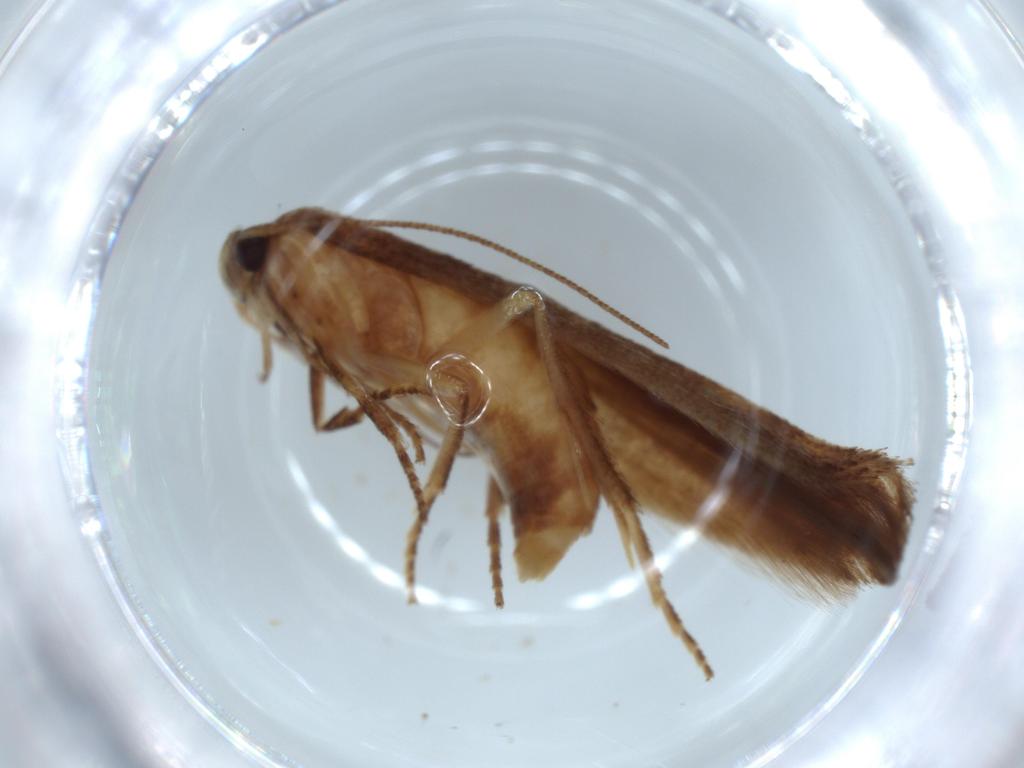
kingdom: Animalia
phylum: Arthropoda
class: Insecta
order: Lepidoptera
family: Stathmopodidae
